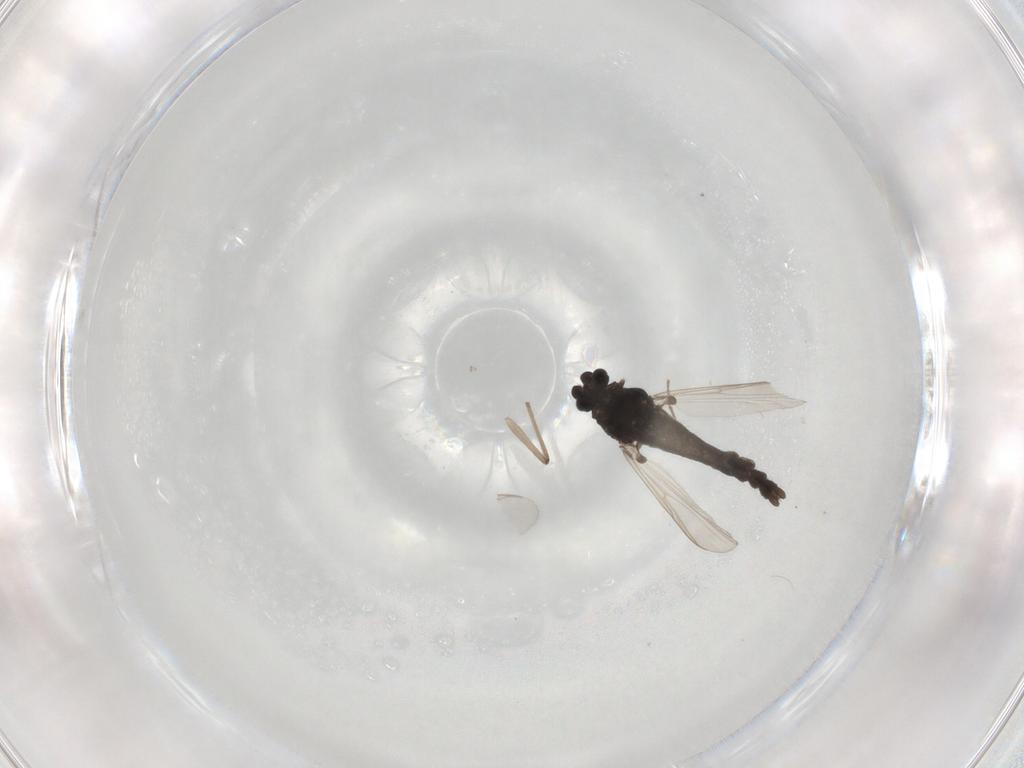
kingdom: Animalia
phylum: Arthropoda
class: Insecta
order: Diptera
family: Chironomidae
